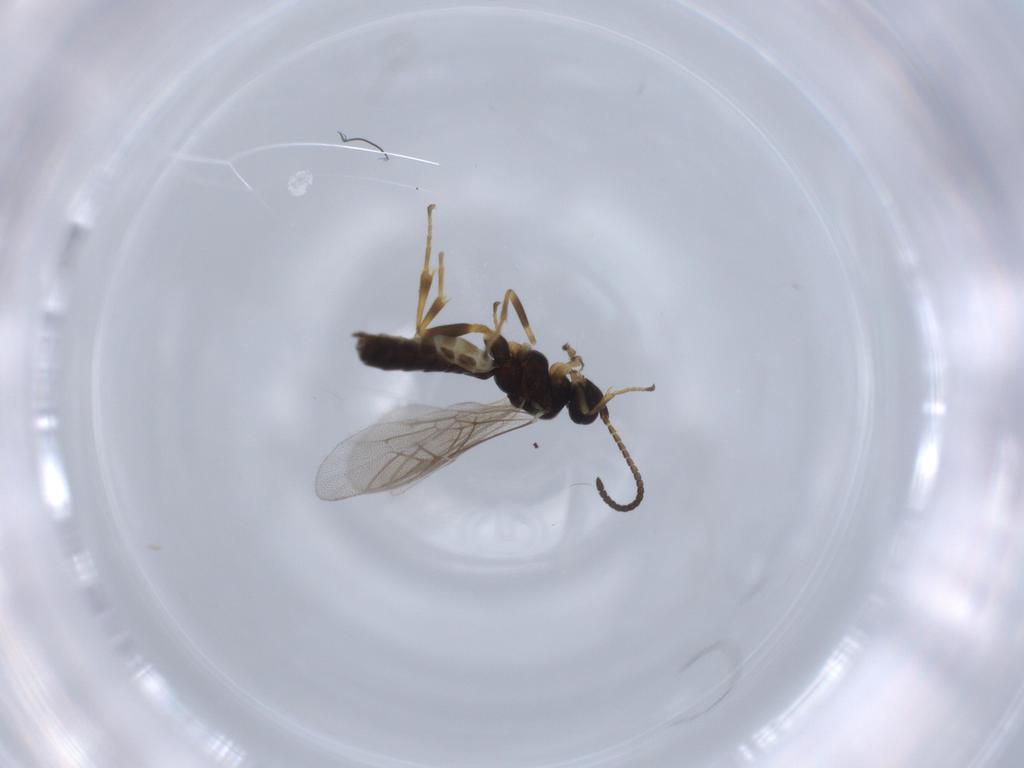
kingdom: Animalia
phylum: Arthropoda
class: Insecta
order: Hymenoptera
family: Ichneumonidae
